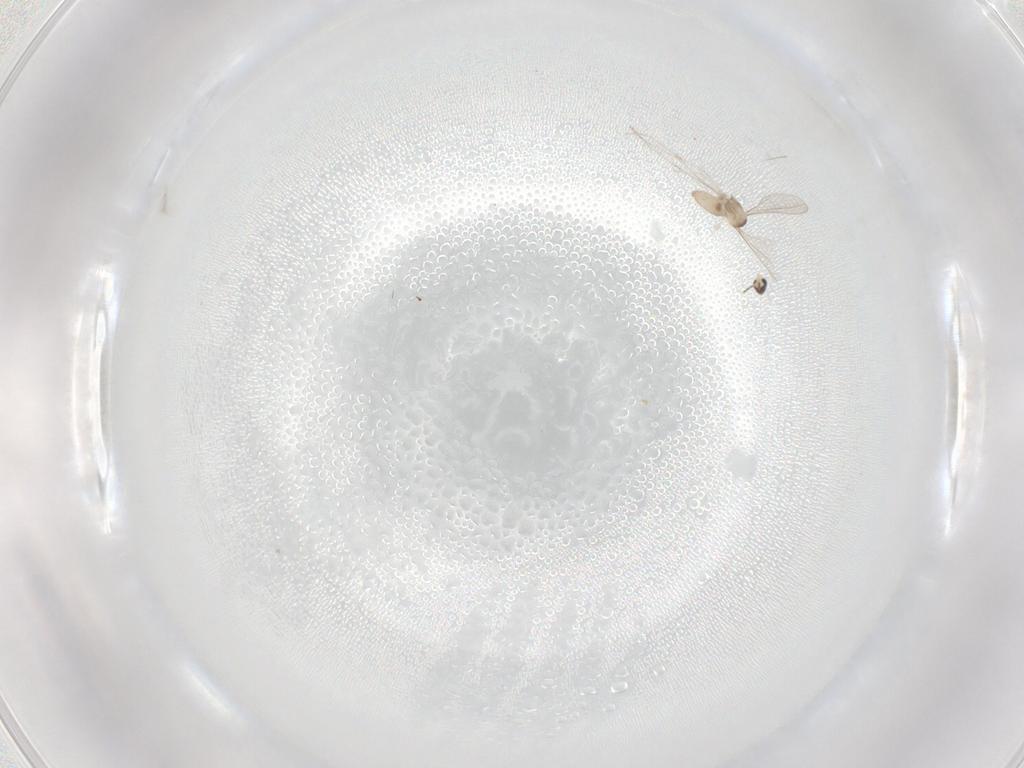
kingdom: Animalia
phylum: Arthropoda
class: Insecta
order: Diptera
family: Cecidomyiidae
